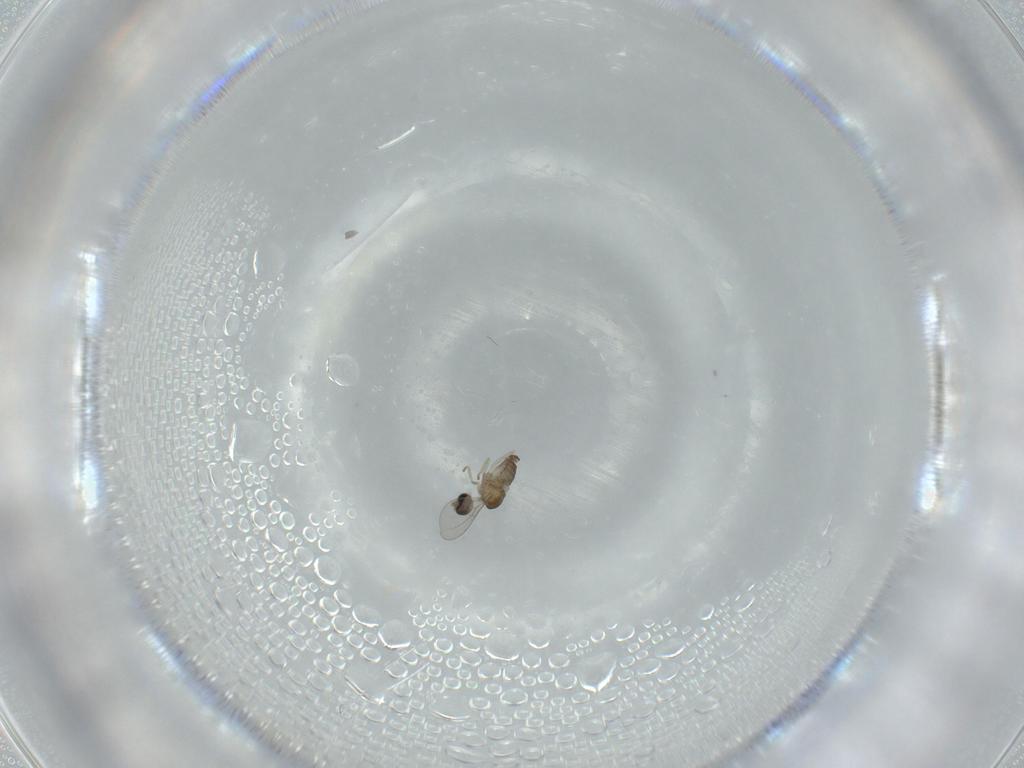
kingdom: Animalia
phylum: Arthropoda
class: Insecta
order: Diptera
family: Cecidomyiidae
